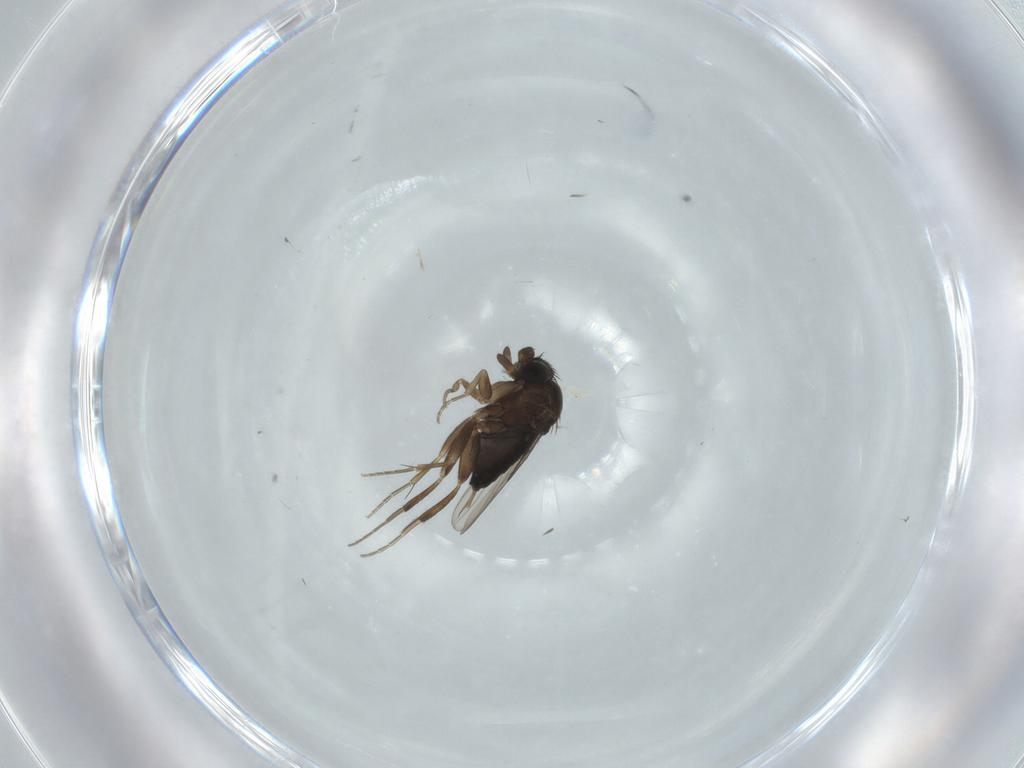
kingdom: Animalia
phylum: Arthropoda
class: Insecta
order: Diptera
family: Phoridae
